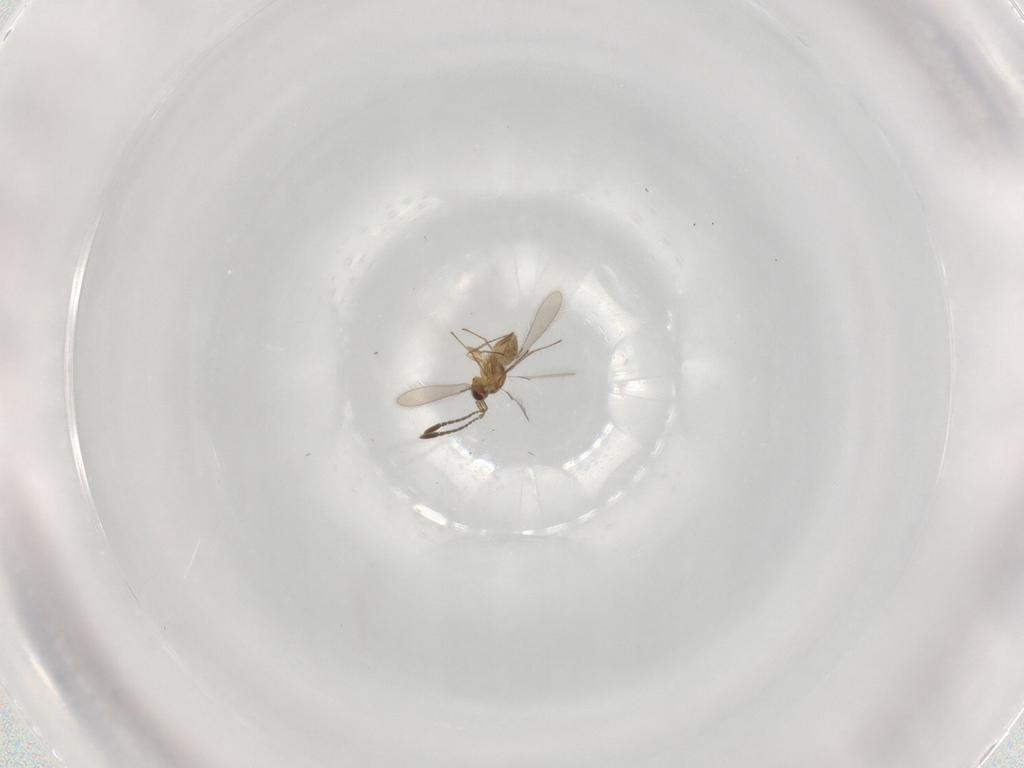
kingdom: Animalia
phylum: Arthropoda
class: Insecta
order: Hymenoptera
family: Mymaridae
